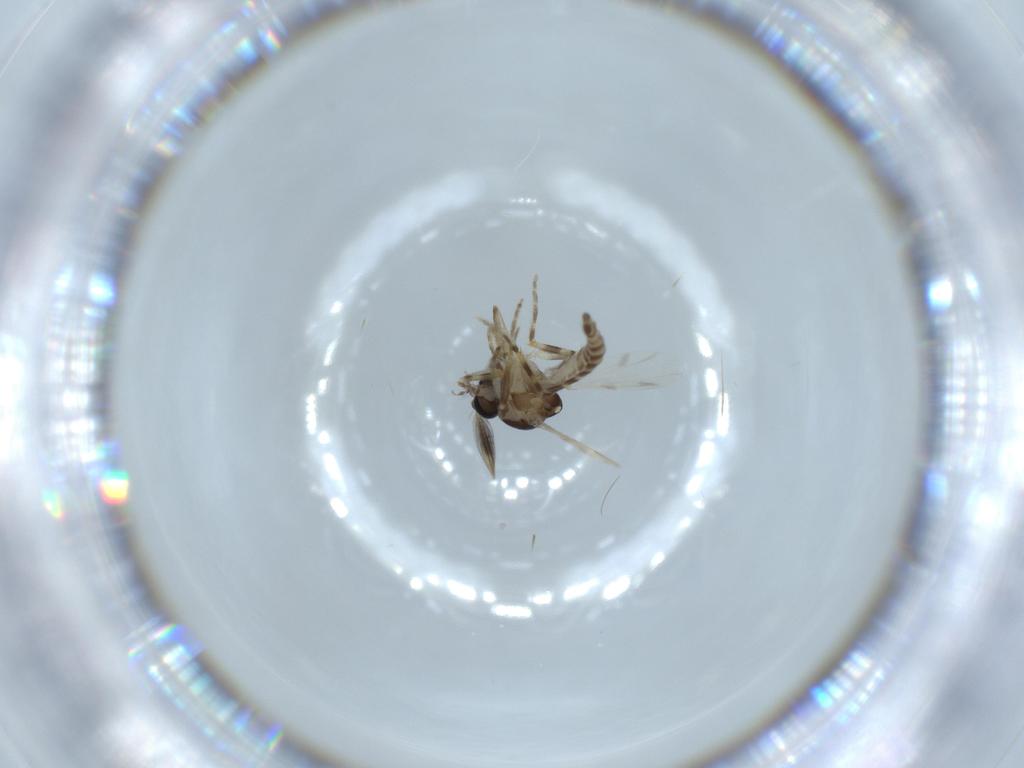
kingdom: Animalia
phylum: Arthropoda
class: Insecta
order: Diptera
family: Ceratopogonidae
